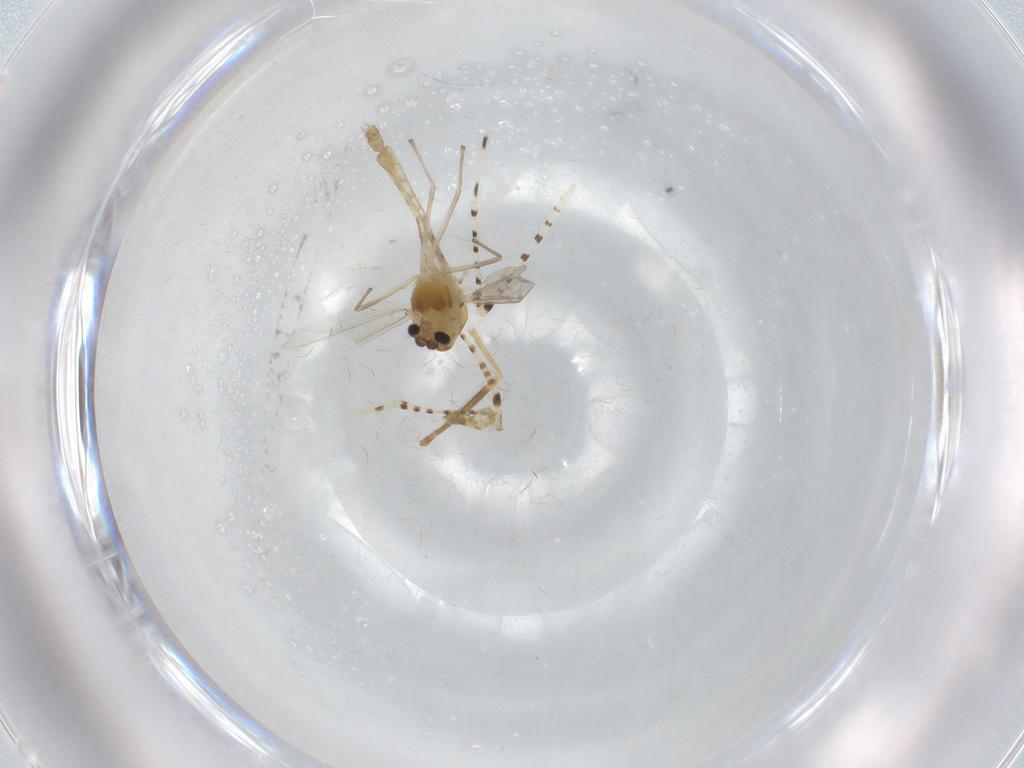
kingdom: Animalia
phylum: Arthropoda
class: Insecta
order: Diptera
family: Chironomidae
